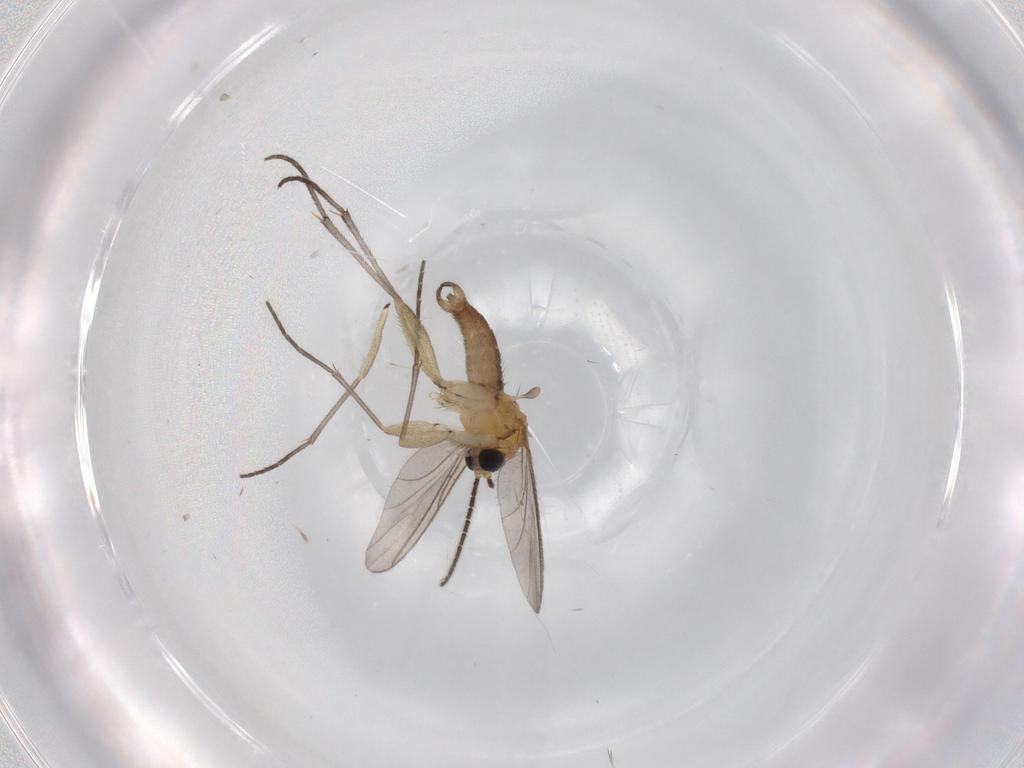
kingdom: Animalia
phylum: Arthropoda
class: Insecta
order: Diptera
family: Sciaridae
